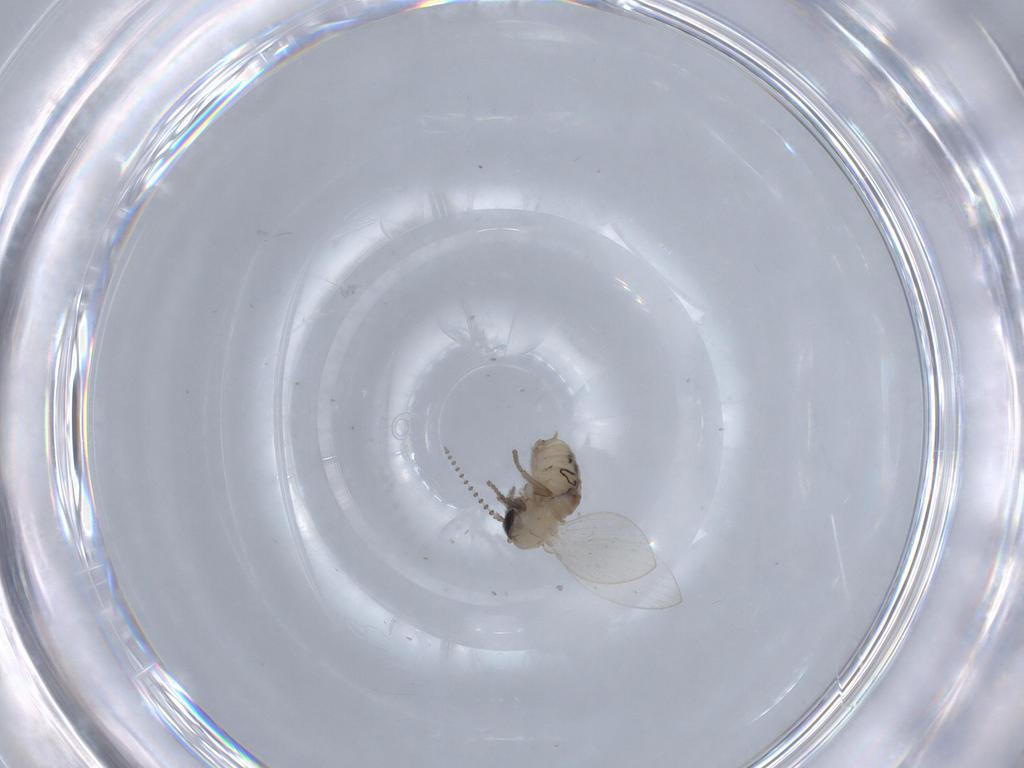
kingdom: Animalia
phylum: Arthropoda
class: Insecta
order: Diptera
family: Psychodidae
